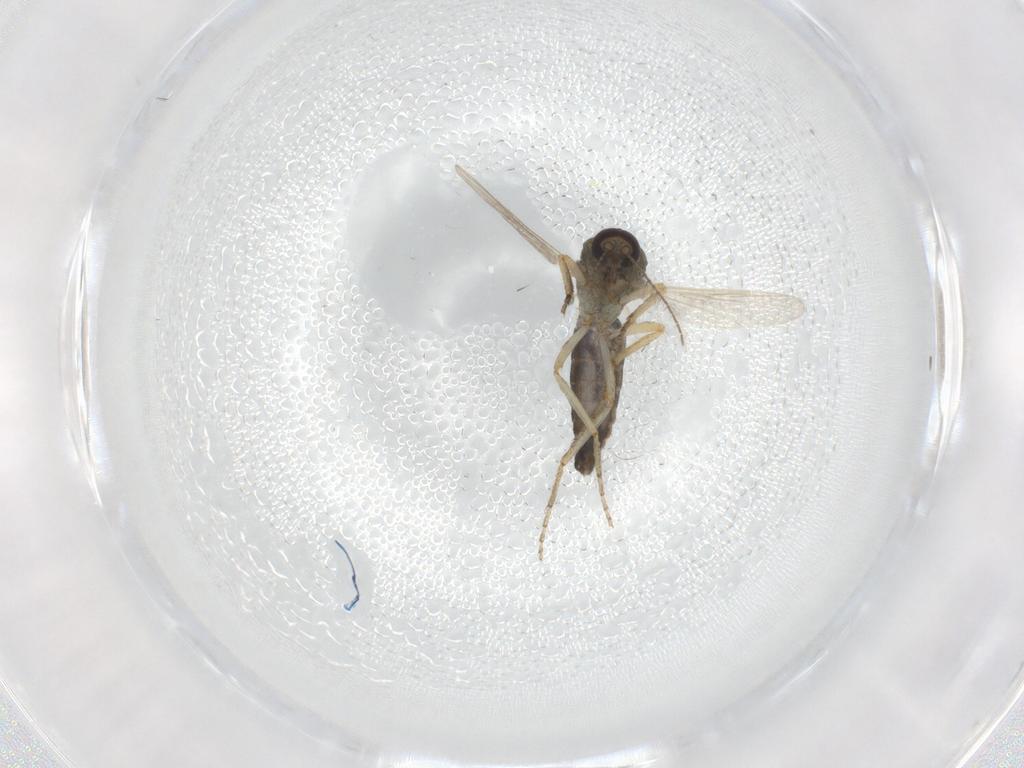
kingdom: Animalia
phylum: Arthropoda
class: Insecta
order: Diptera
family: Ceratopogonidae
